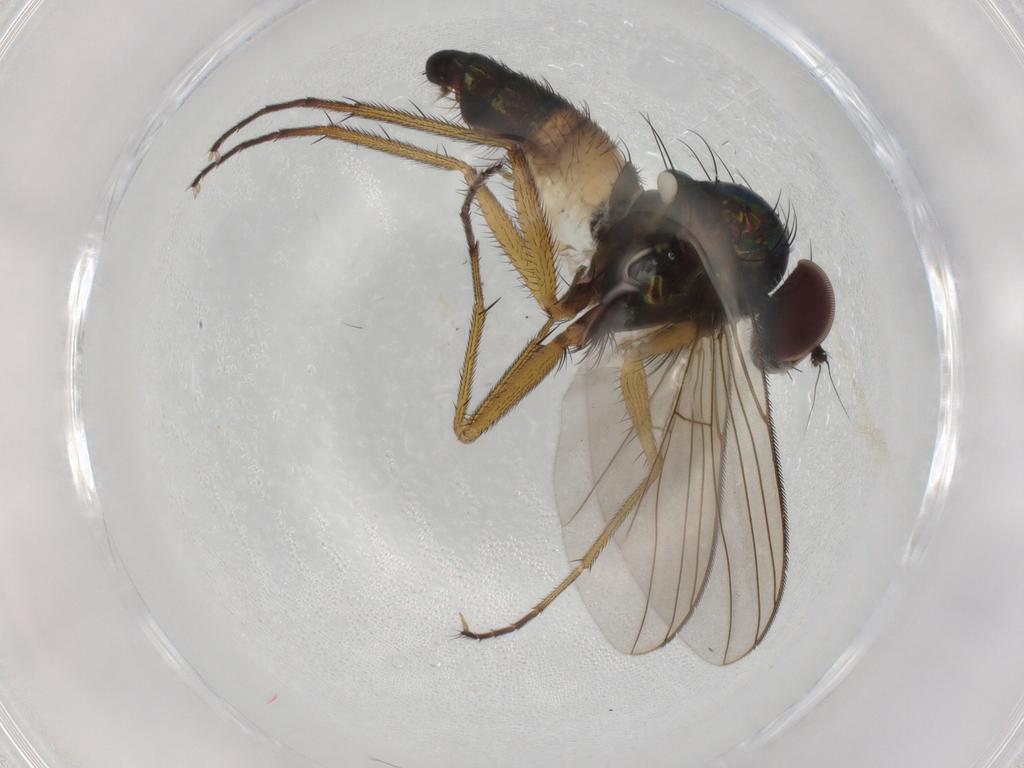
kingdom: Animalia
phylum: Arthropoda
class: Insecta
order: Diptera
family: Dolichopodidae
